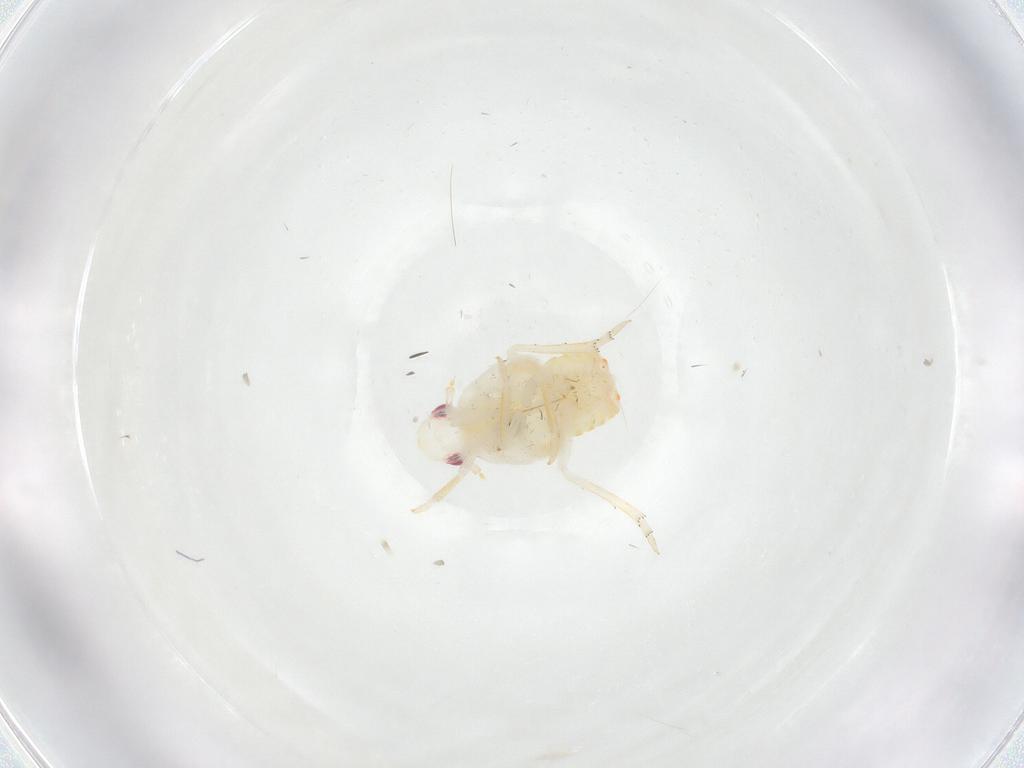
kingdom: Animalia
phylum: Arthropoda
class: Insecta
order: Hemiptera
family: Flatidae
